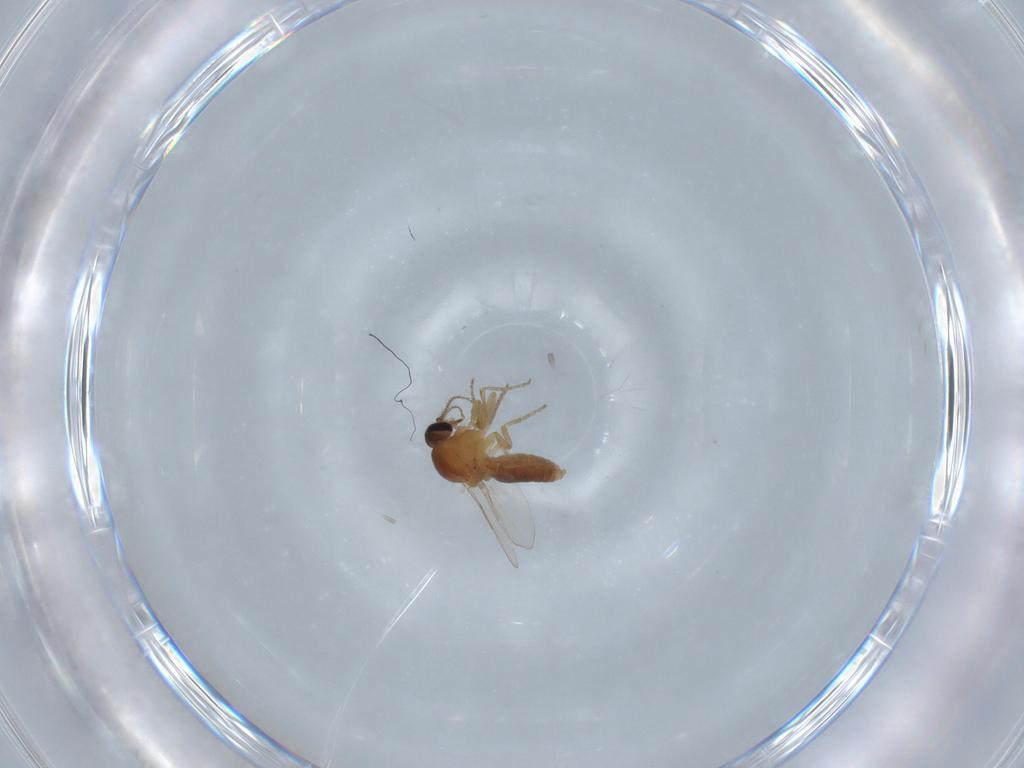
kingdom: Animalia
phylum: Arthropoda
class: Insecta
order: Diptera
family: Ceratopogonidae
